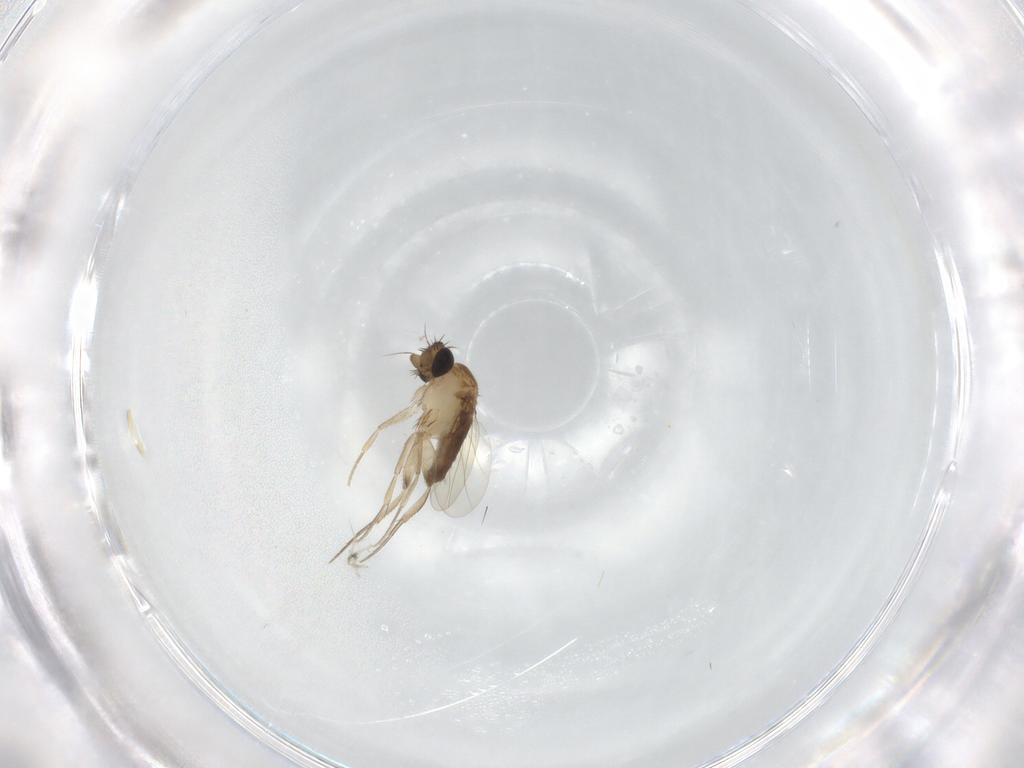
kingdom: Animalia
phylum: Arthropoda
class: Insecta
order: Diptera
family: Phoridae
